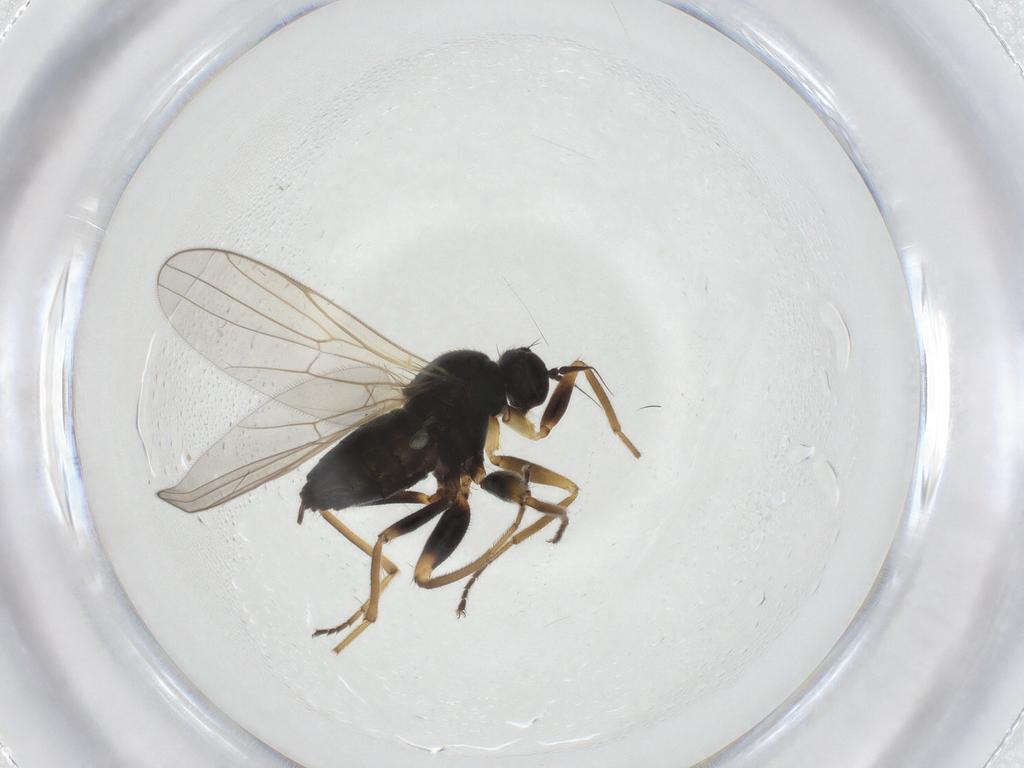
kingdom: Animalia
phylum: Arthropoda
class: Insecta
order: Diptera
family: Hybotidae
